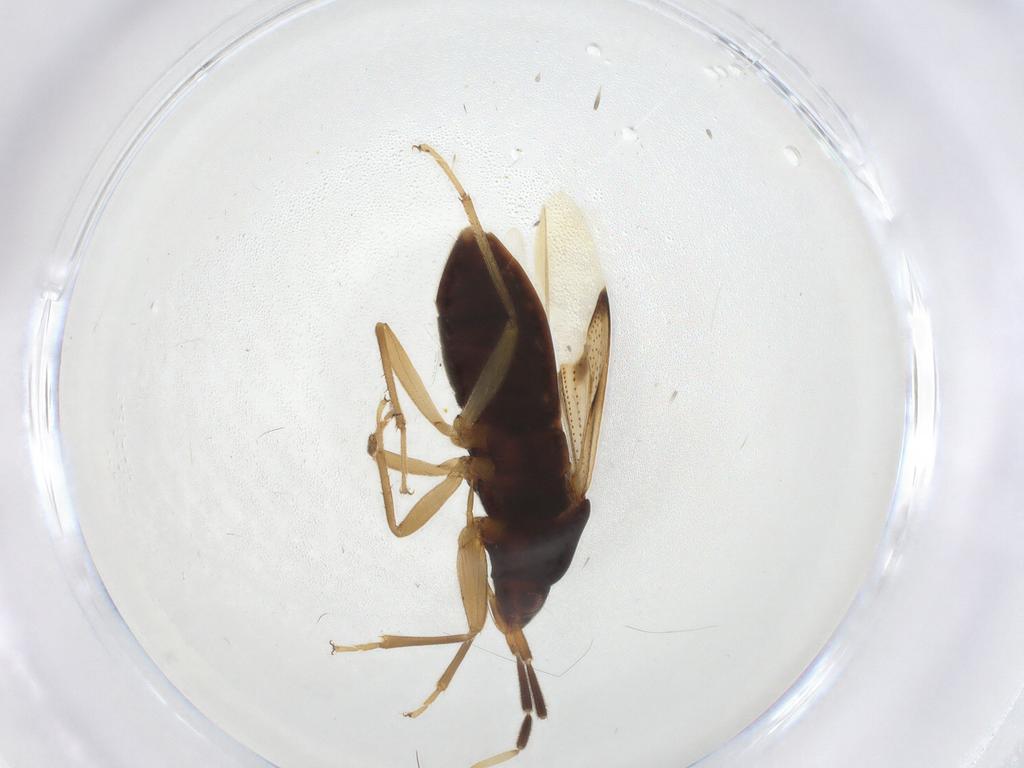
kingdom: Animalia
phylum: Arthropoda
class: Insecta
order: Hemiptera
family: Rhyparochromidae
